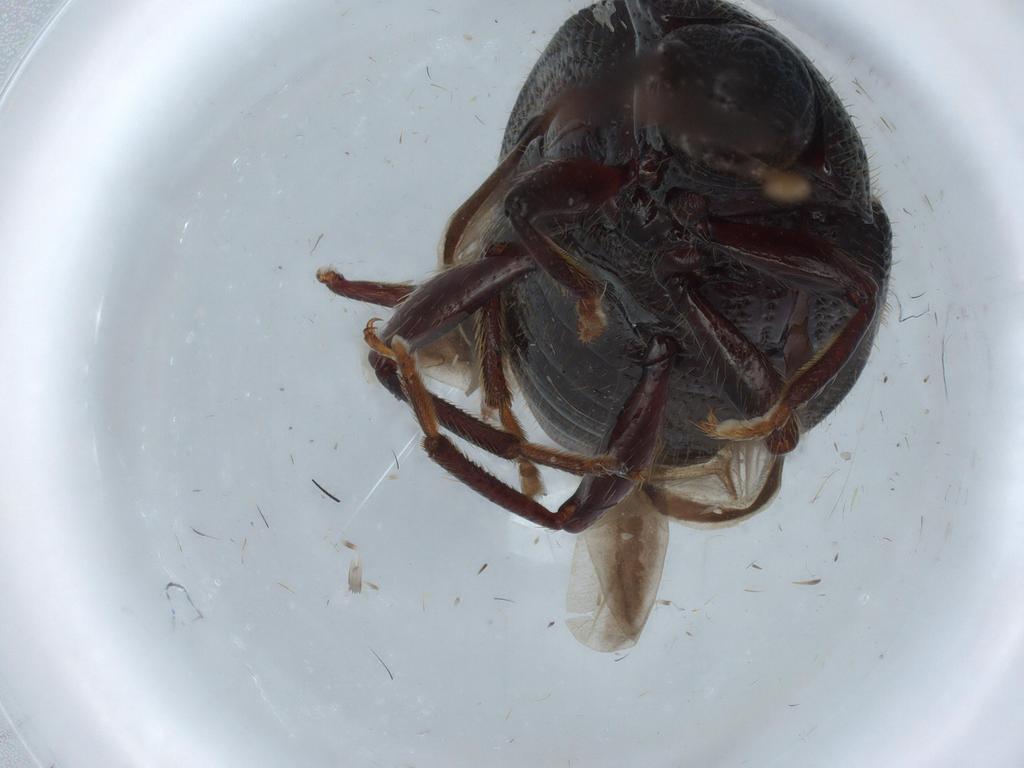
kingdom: Animalia
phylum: Arthropoda
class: Insecta
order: Coleoptera
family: Tenebrionidae
